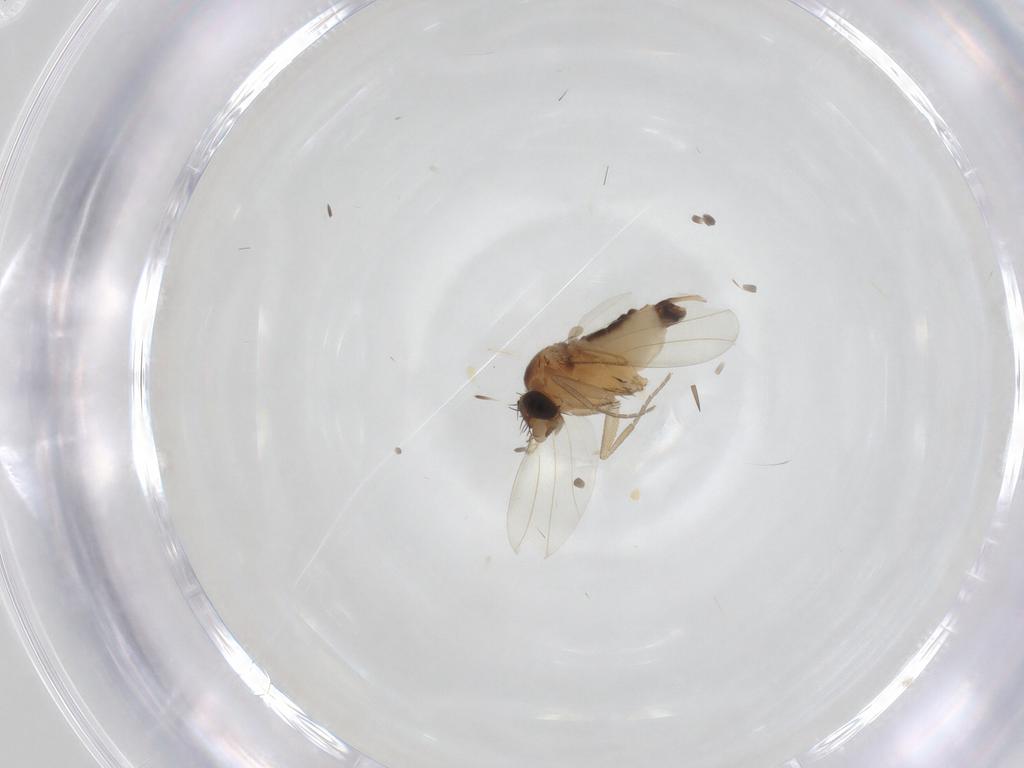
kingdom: Animalia
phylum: Arthropoda
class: Insecta
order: Diptera
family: Phoridae
